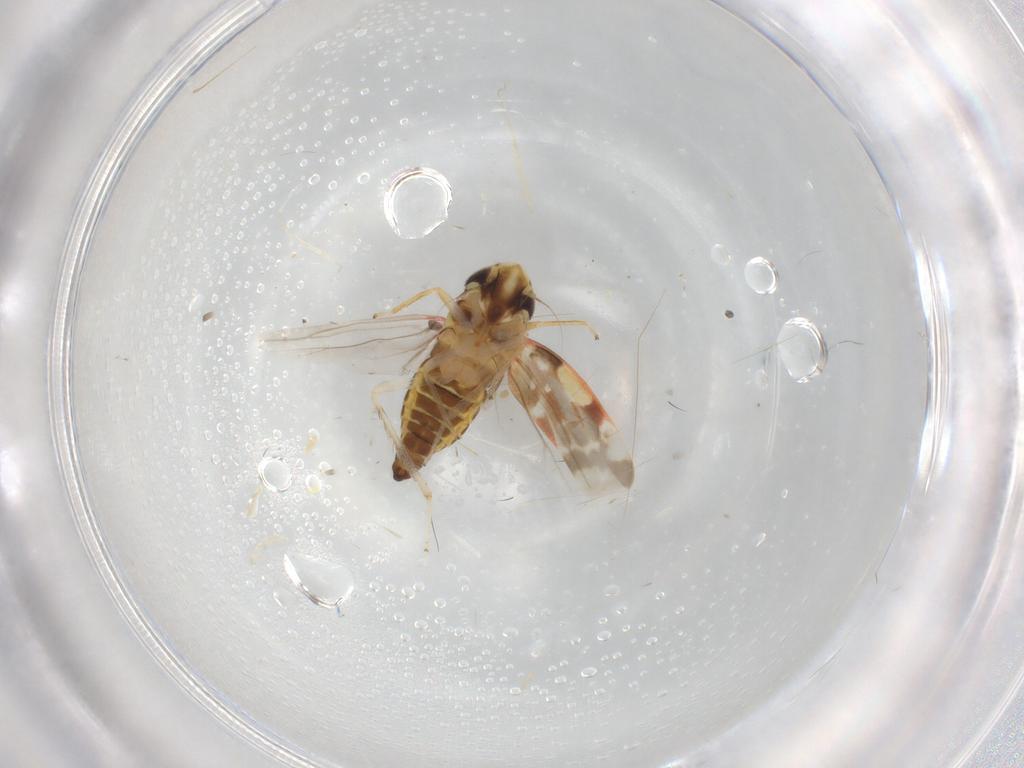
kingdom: Animalia
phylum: Arthropoda
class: Insecta
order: Hemiptera
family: Cicadellidae
